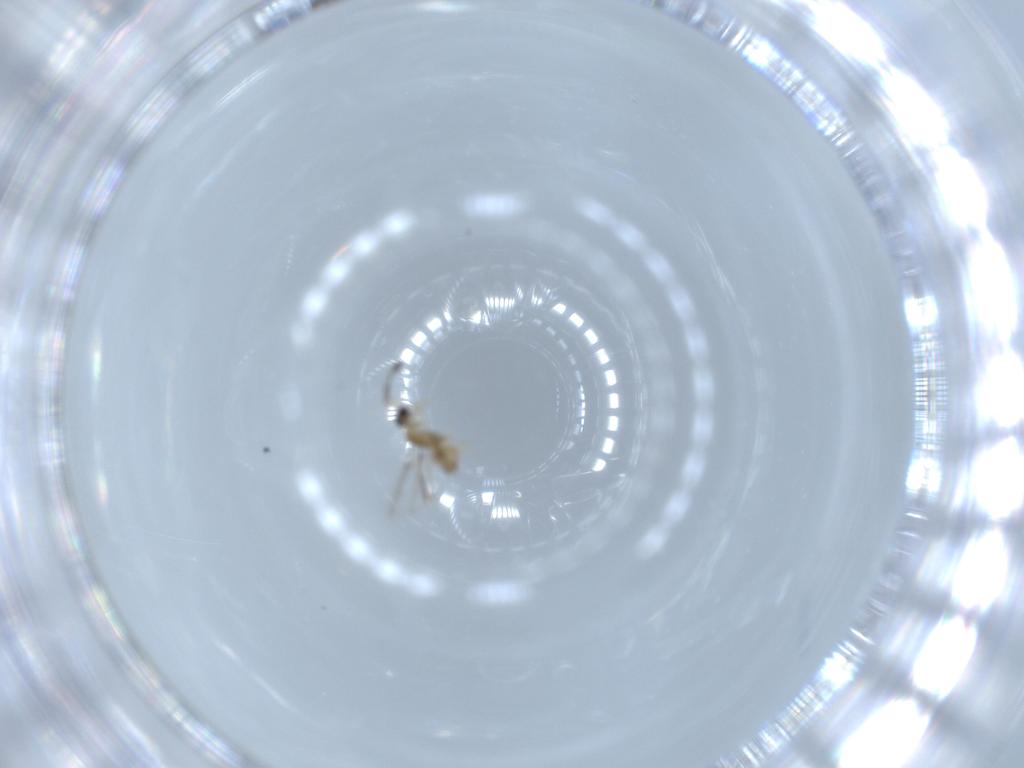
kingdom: Animalia
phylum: Arthropoda
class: Insecta
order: Hymenoptera
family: Mymaridae
